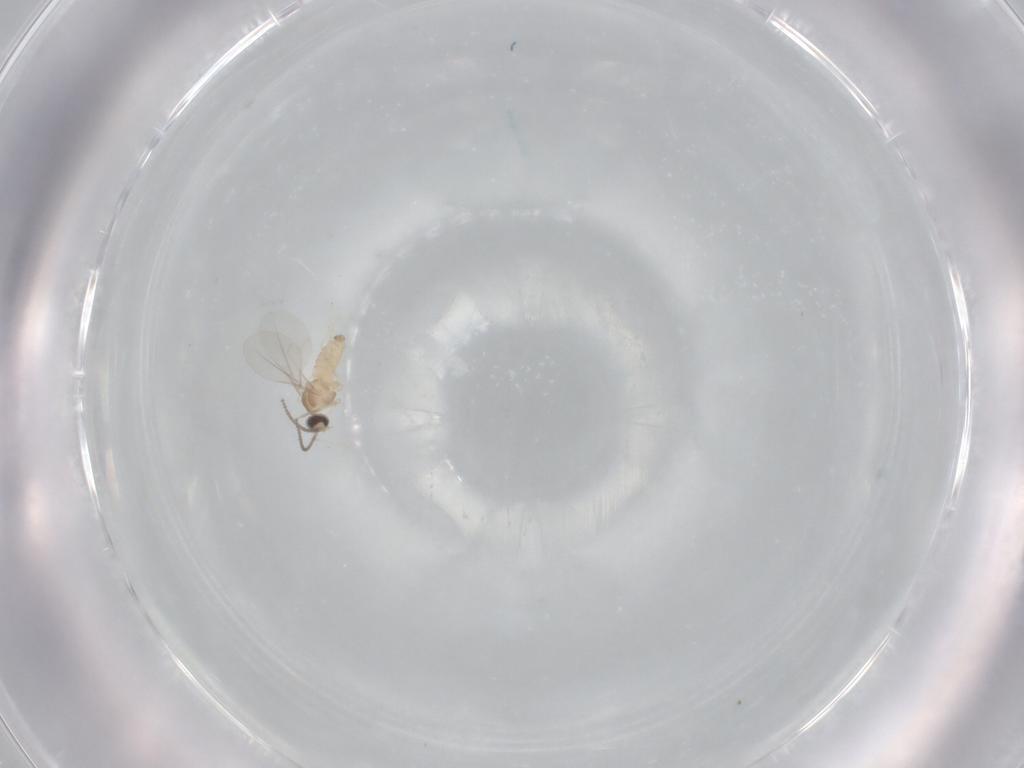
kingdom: Animalia
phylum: Arthropoda
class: Insecta
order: Diptera
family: Cecidomyiidae
